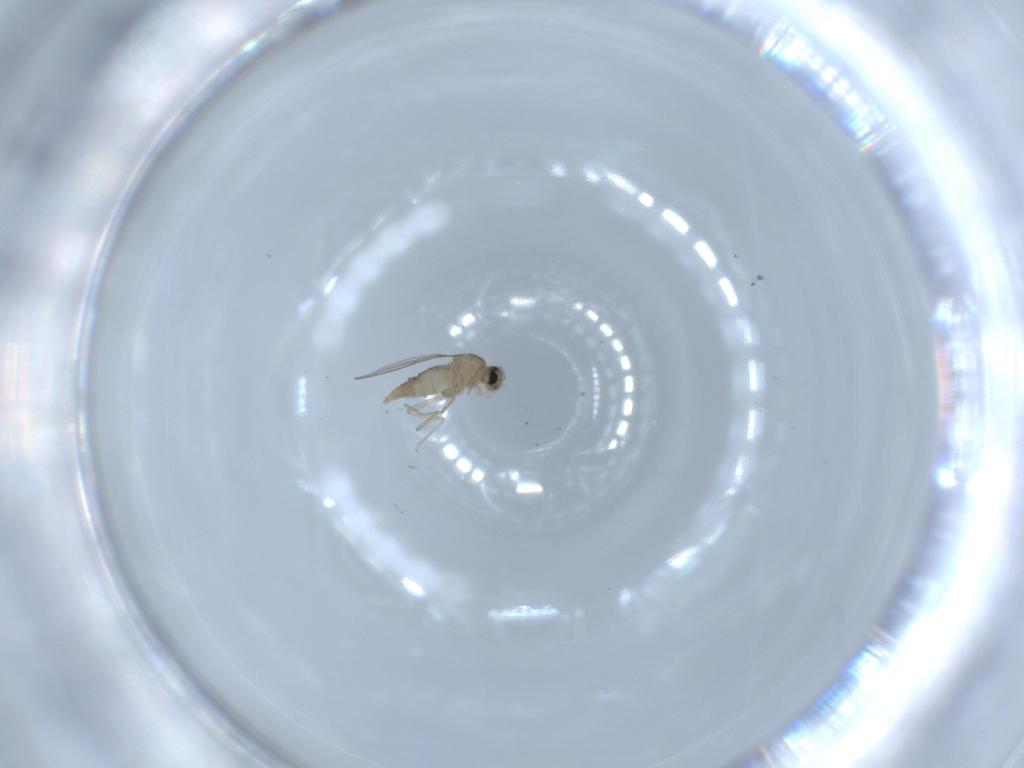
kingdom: Animalia
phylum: Arthropoda
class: Insecta
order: Diptera
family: Cecidomyiidae
